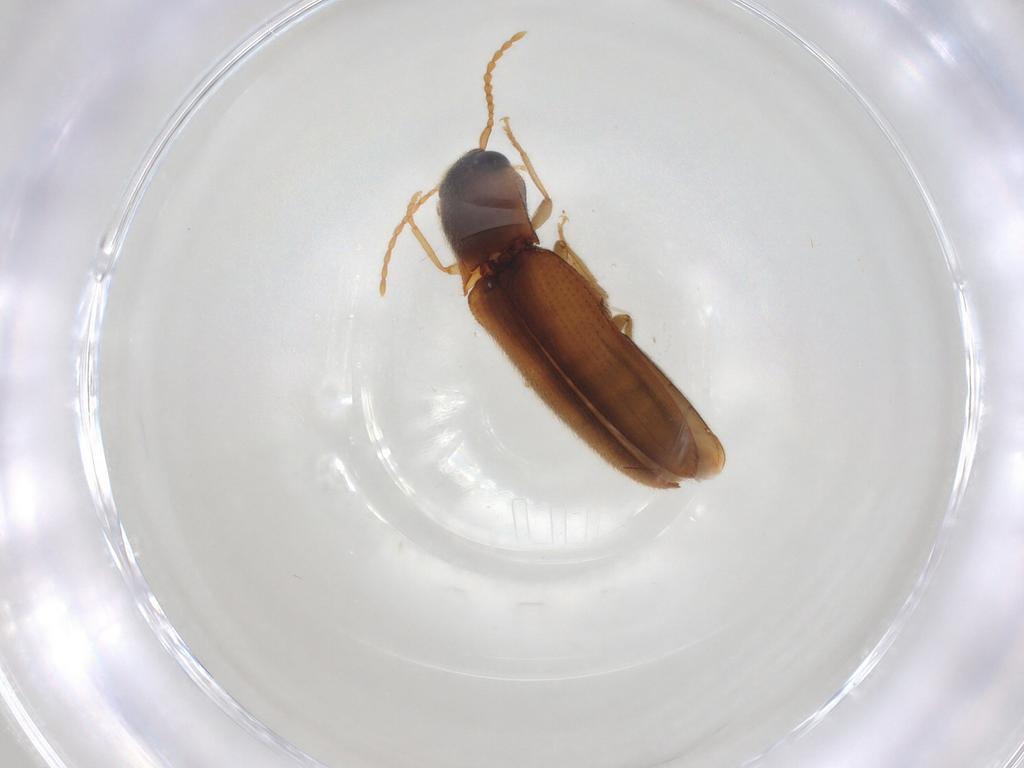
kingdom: Animalia
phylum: Arthropoda
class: Insecta
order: Coleoptera
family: Elateridae
